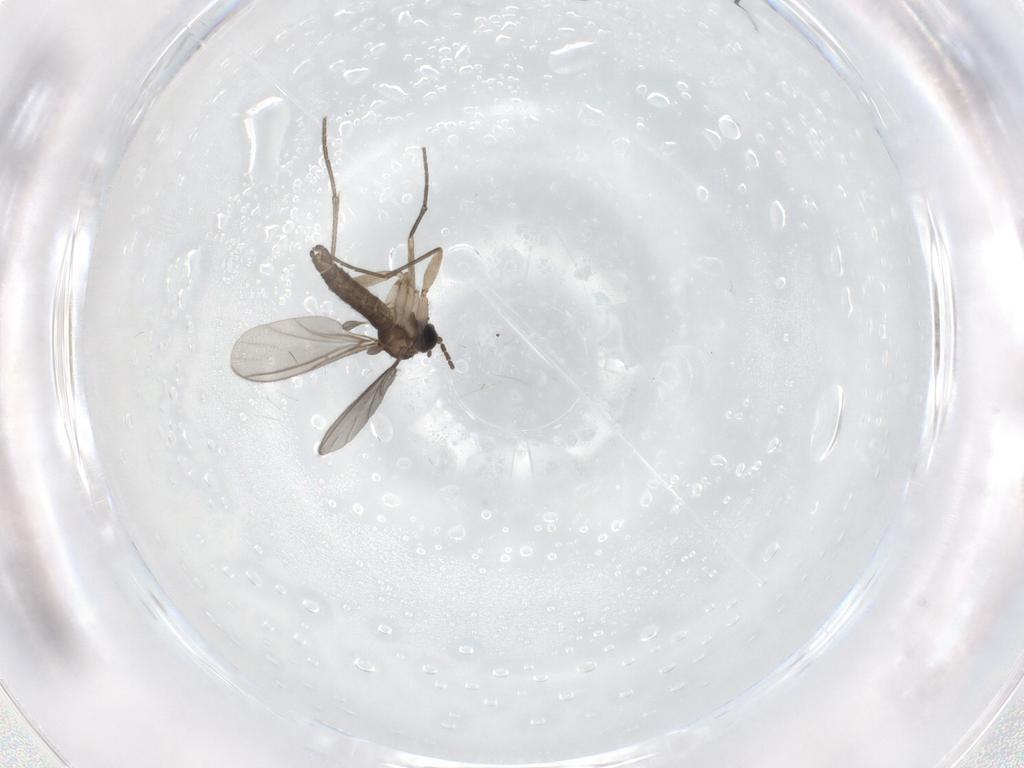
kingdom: Animalia
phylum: Arthropoda
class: Insecta
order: Diptera
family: Sciaridae
